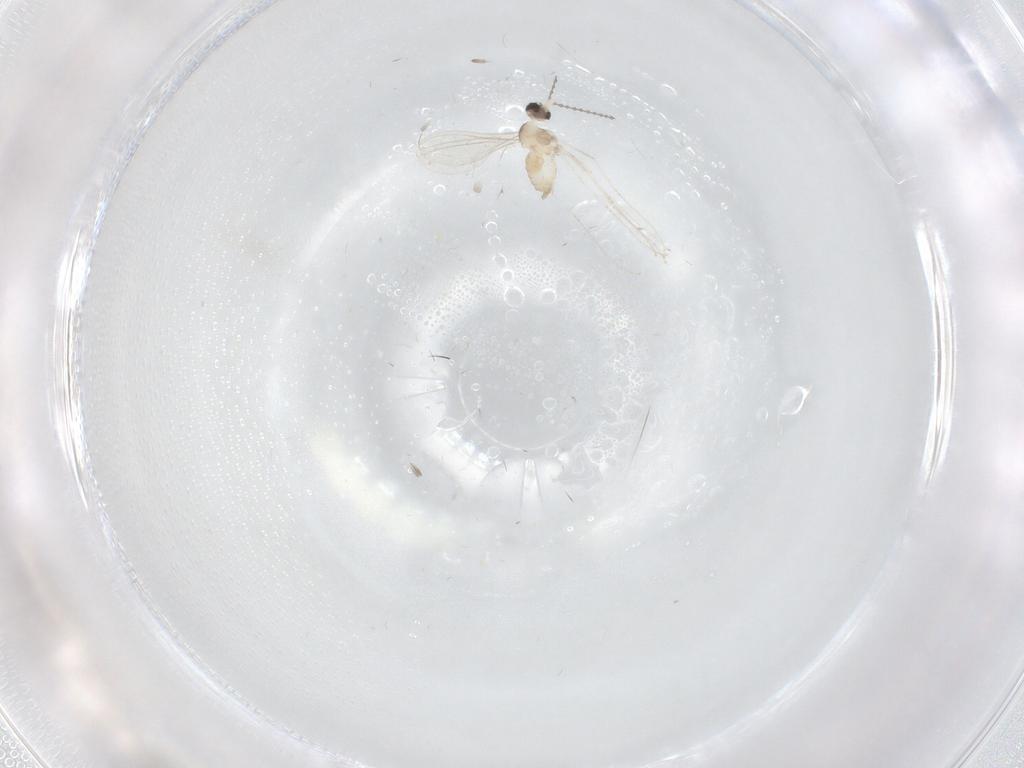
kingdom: Animalia
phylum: Arthropoda
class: Insecta
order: Diptera
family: Cecidomyiidae
